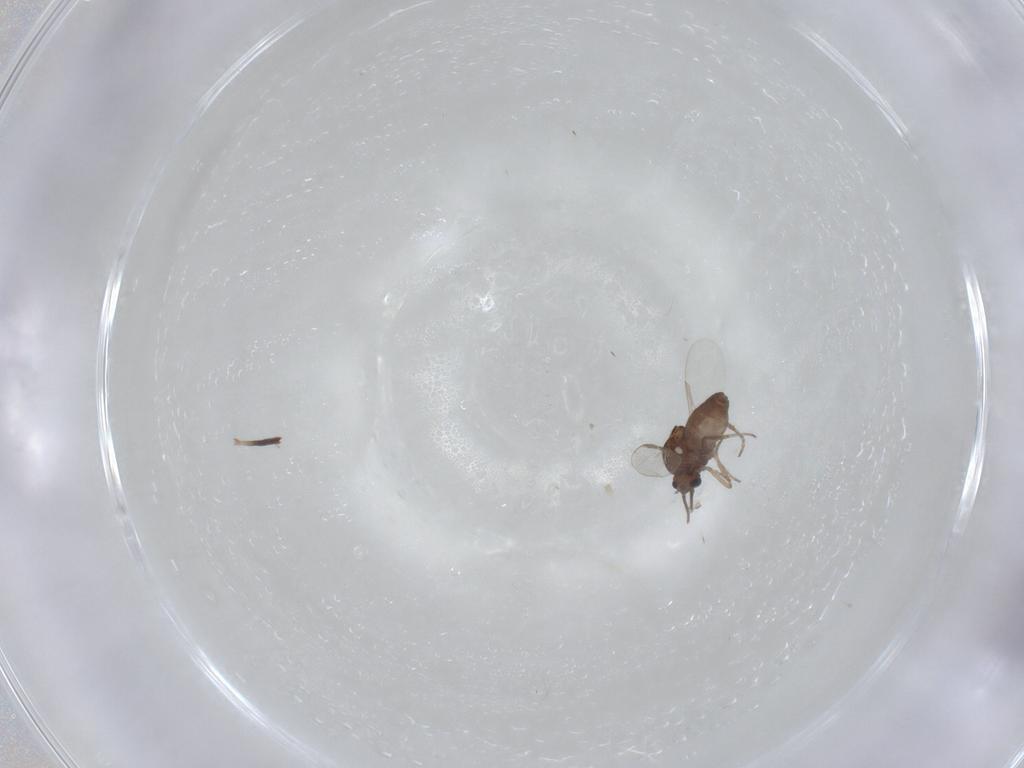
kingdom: Animalia
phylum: Arthropoda
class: Insecta
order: Diptera
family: Ceratopogonidae
